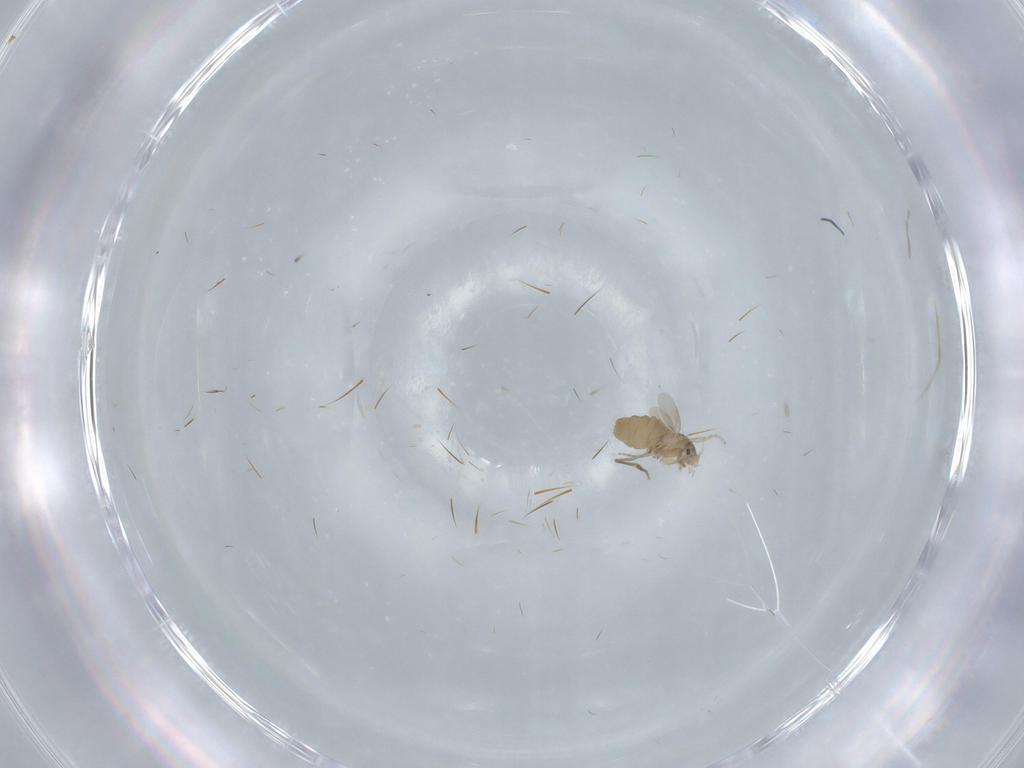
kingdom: Animalia
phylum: Arthropoda
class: Insecta
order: Diptera
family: Phoridae
